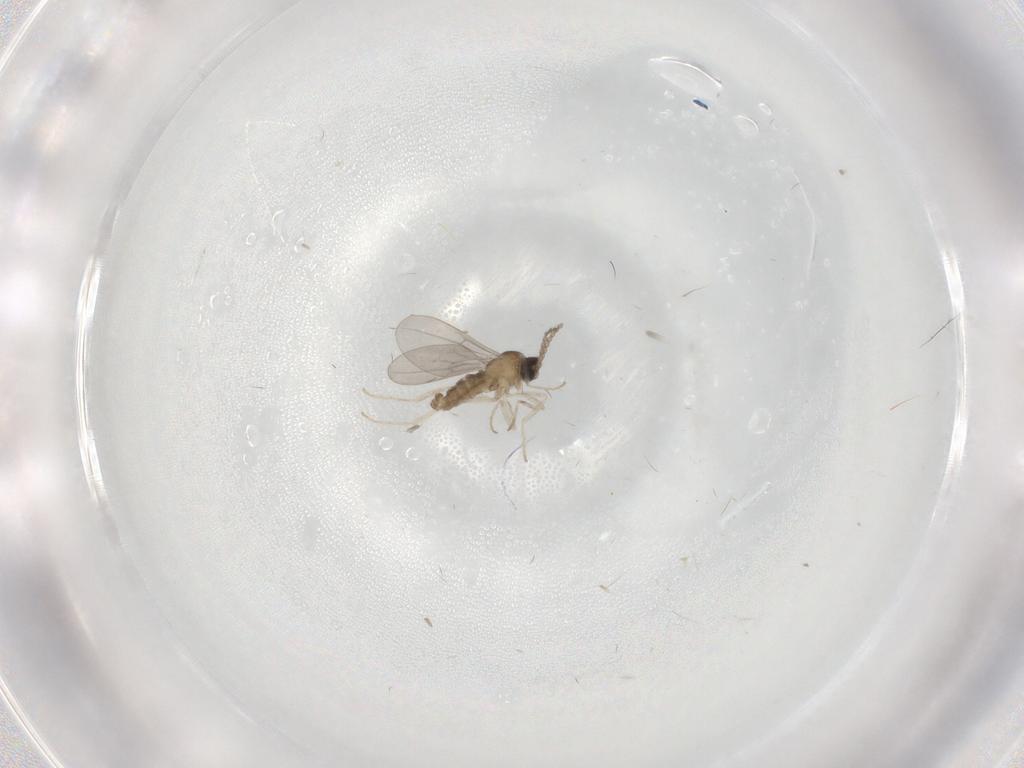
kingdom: Animalia
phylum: Arthropoda
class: Insecta
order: Diptera
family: Cecidomyiidae
